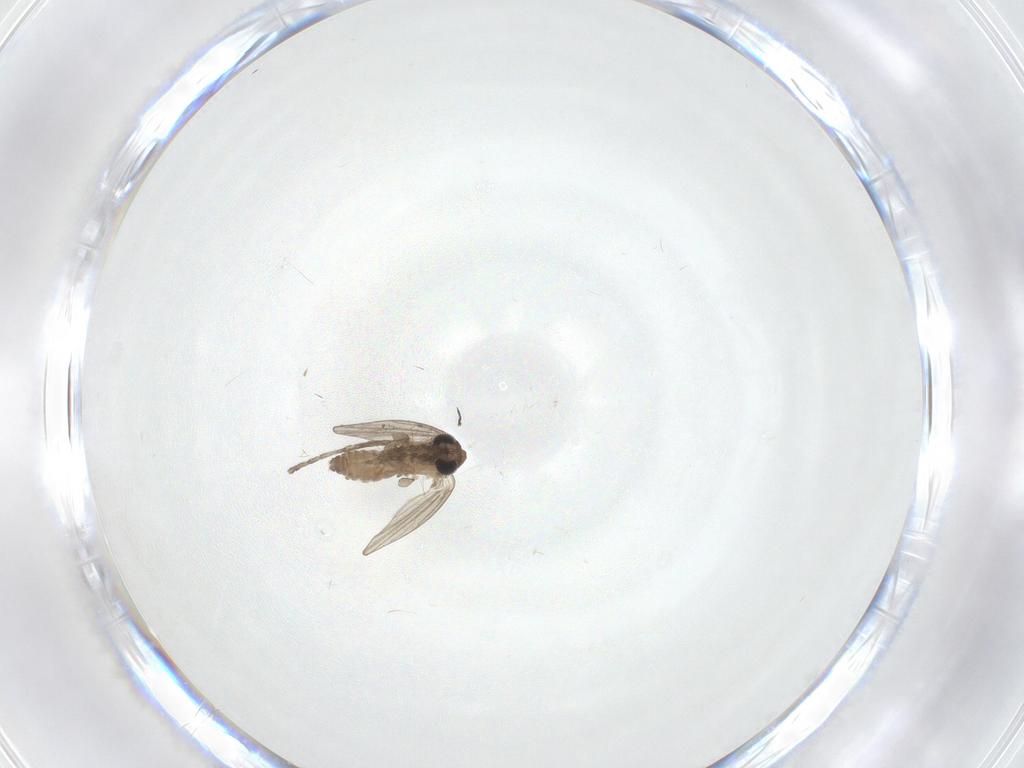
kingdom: Animalia
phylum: Arthropoda
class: Insecta
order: Diptera
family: Psychodidae
